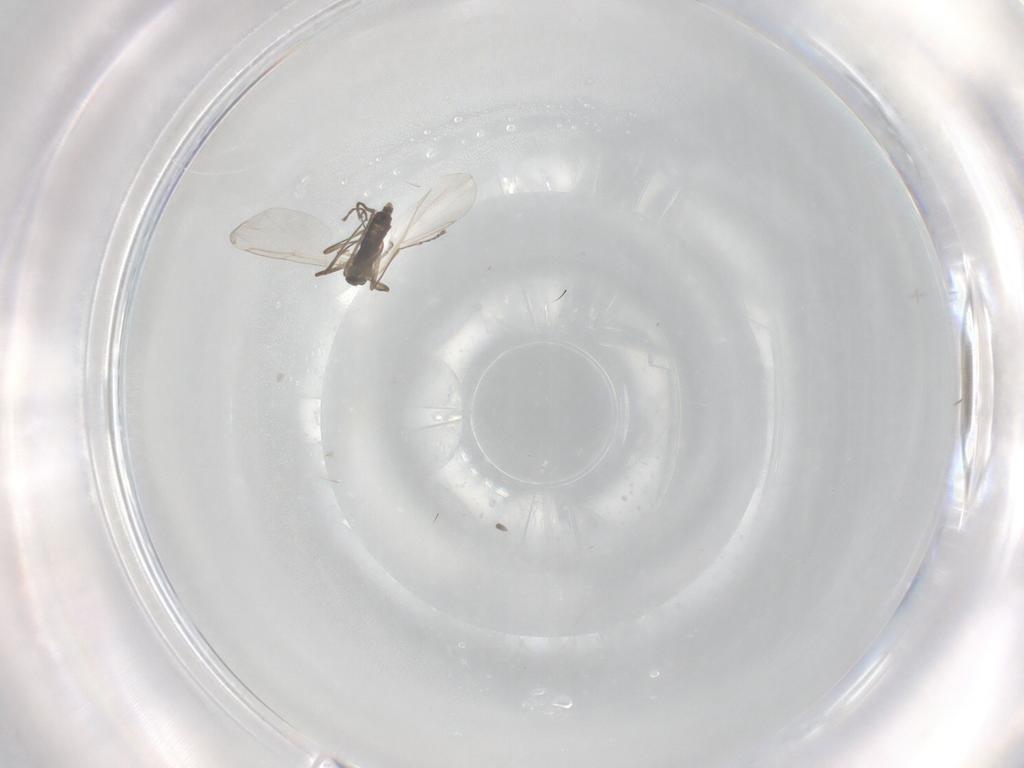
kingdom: Animalia
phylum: Arthropoda
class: Insecta
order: Diptera
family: Cecidomyiidae
